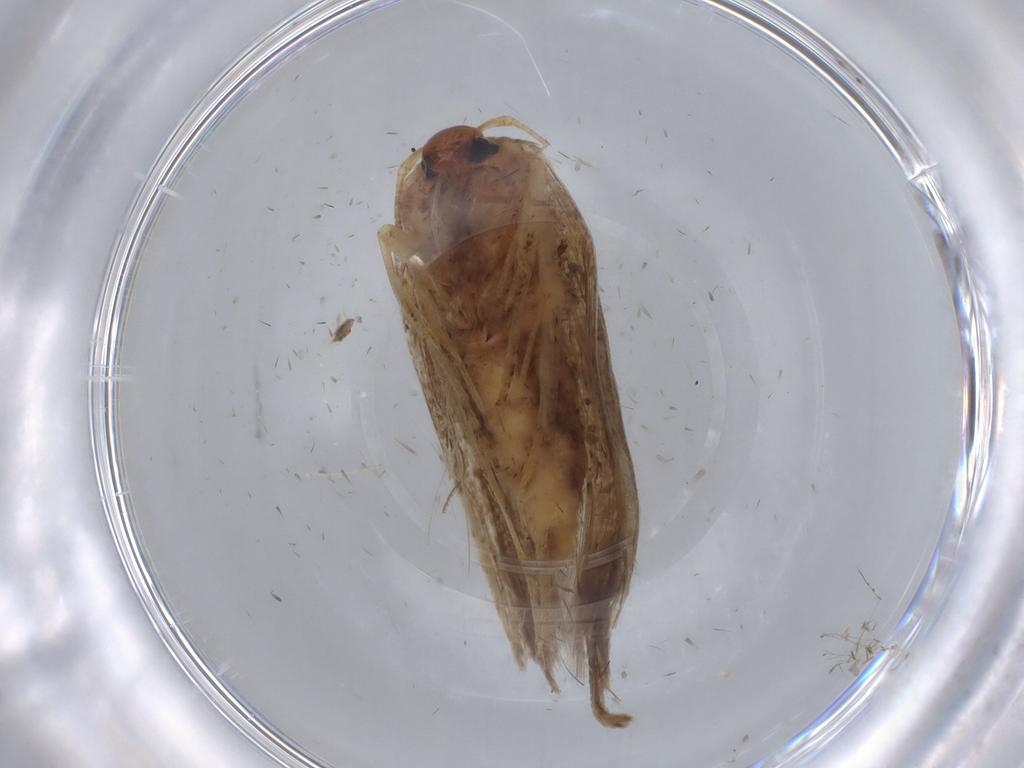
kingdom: Animalia
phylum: Arthropoda
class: Insecta
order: Lepidoptera
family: Blastobasidae
